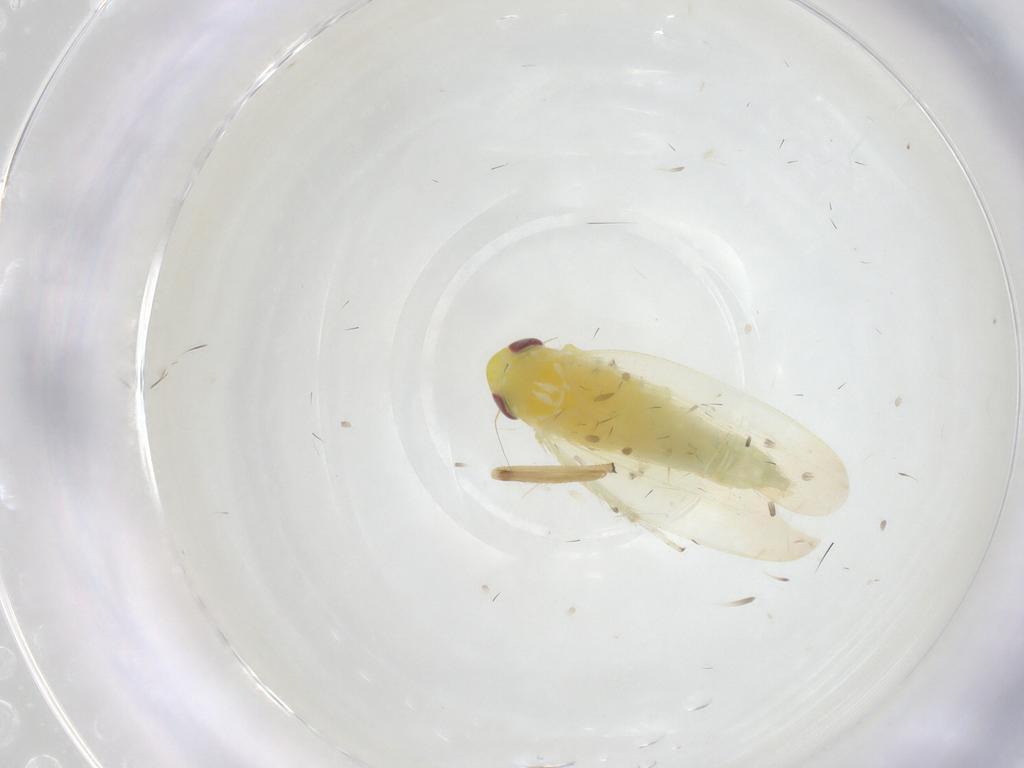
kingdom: Animalia
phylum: Arthropoda
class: Insecta
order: Hemiptera
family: Cicadellidae
